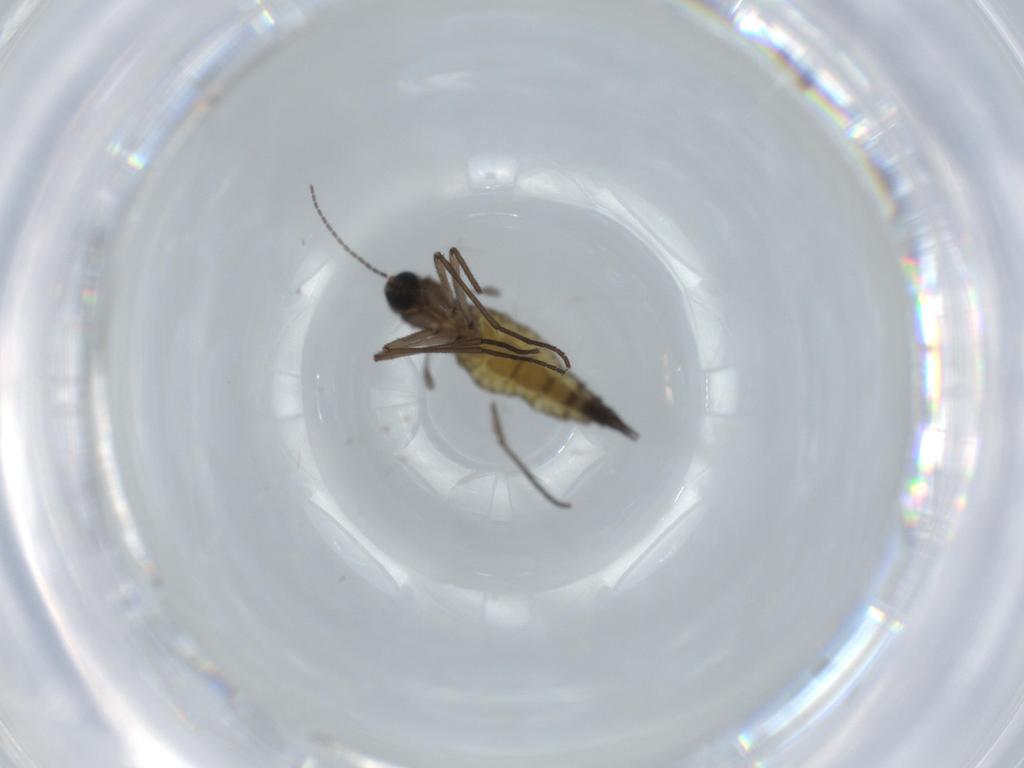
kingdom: Animalia
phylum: Arthropoda
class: Insecta
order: Diptera
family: Sciaridae
